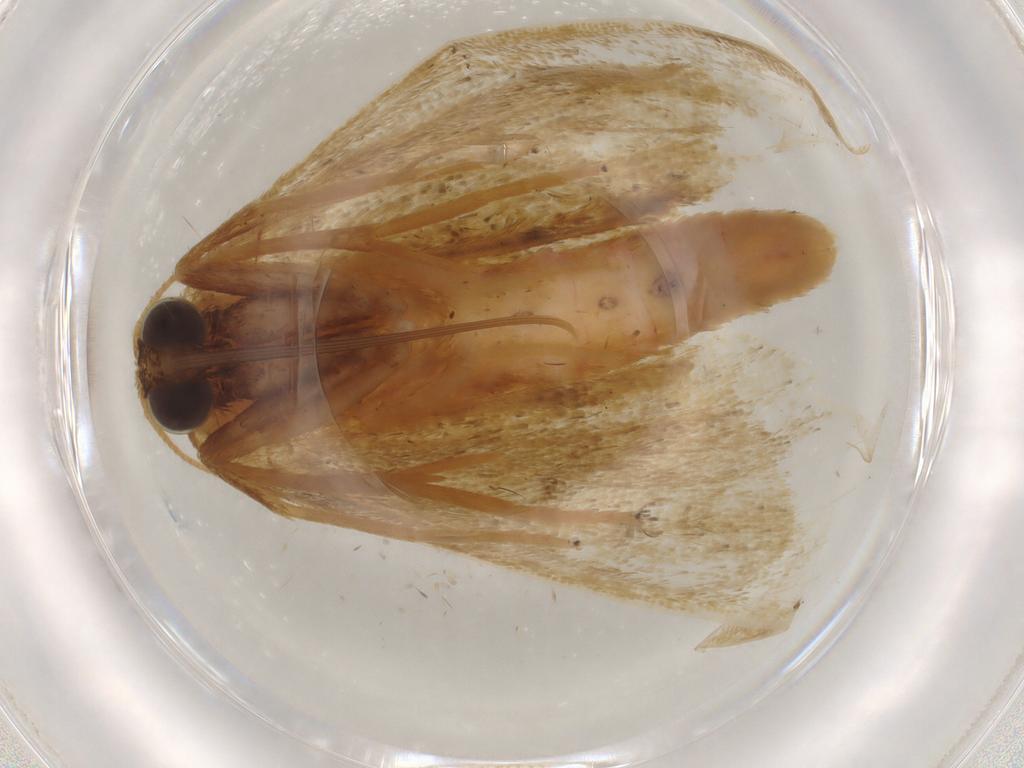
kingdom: Animalia
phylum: Arthropoda
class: Insecta
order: Lepidoptera
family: Geometridae
